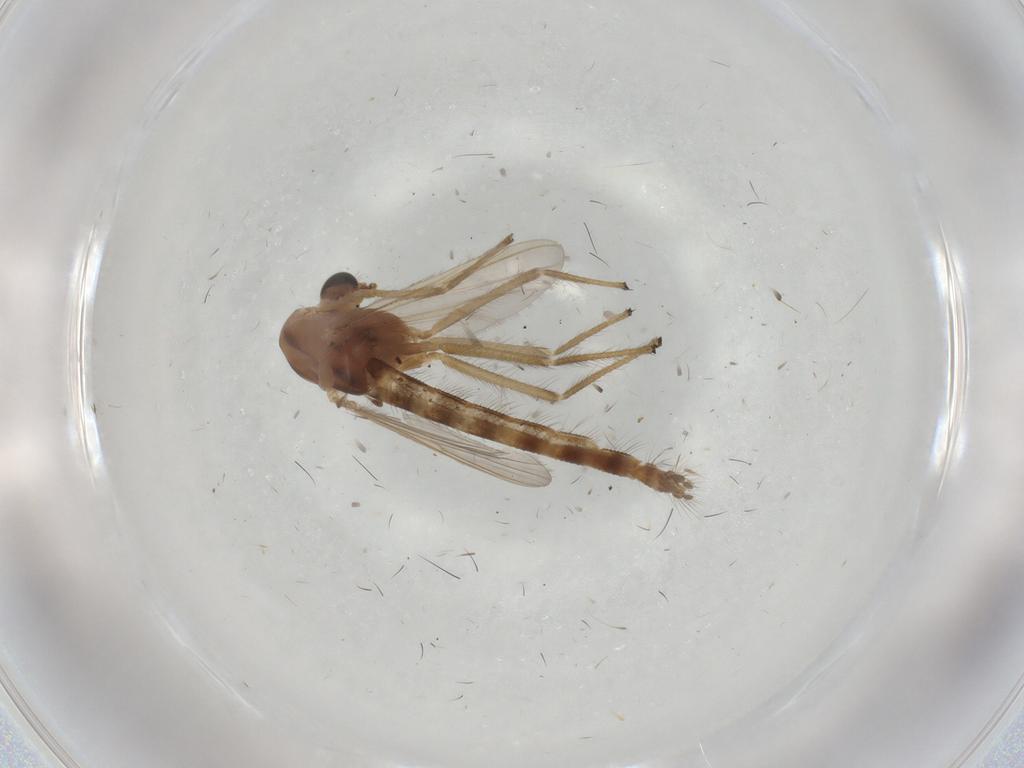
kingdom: Animalia
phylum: Arthropoda
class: Insecta
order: Diptera
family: Chironomidae
